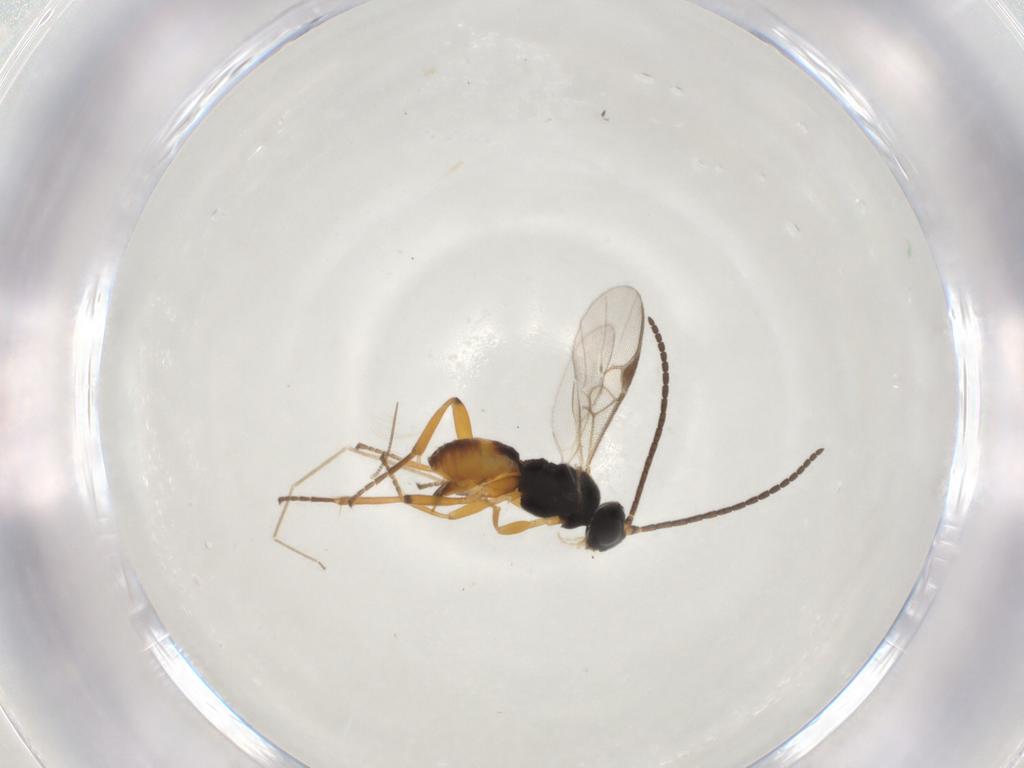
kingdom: Animalia
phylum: Arthropoda
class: Insecta
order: Hymenoptera
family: Braconidae
